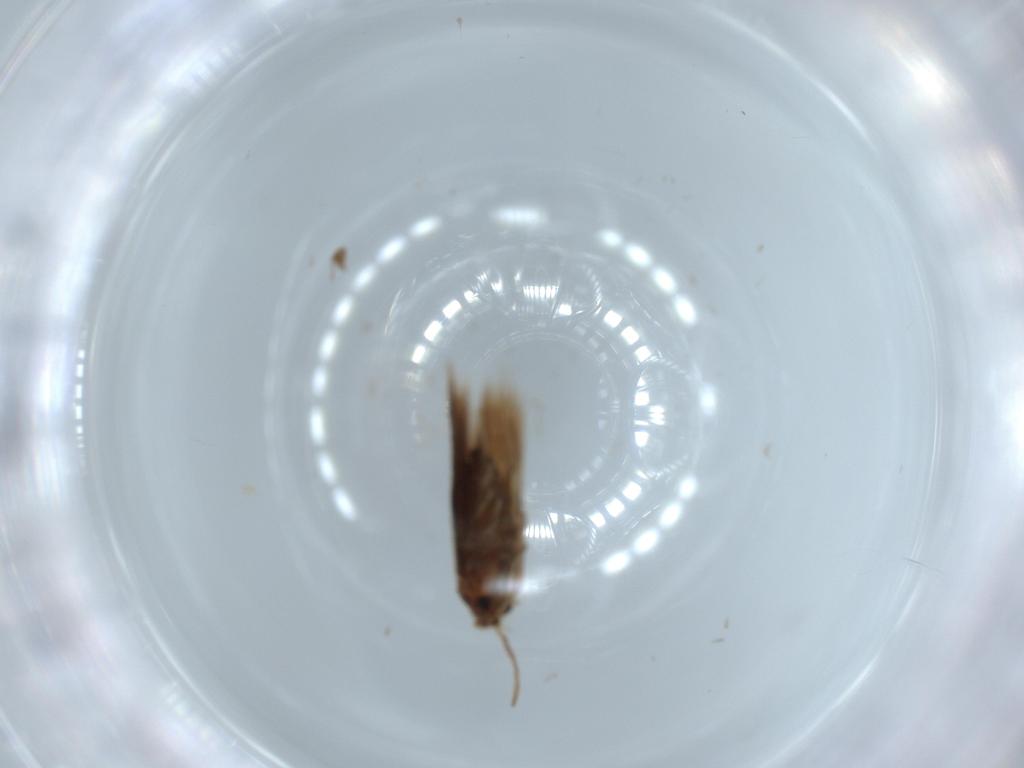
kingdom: Animalia
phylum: Arthropoda
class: Insecta
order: Lepidoptera
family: Nepticulidae
